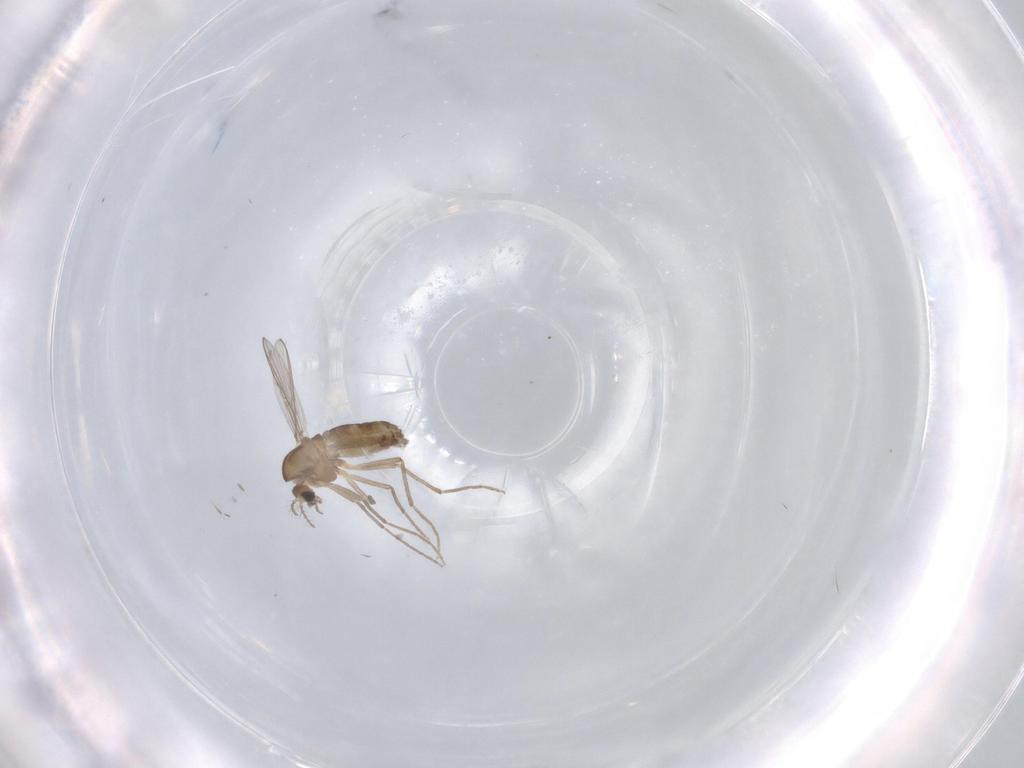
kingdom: Animalia
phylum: Arthropoda
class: Insecta
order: Diptera
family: Chironomidae
